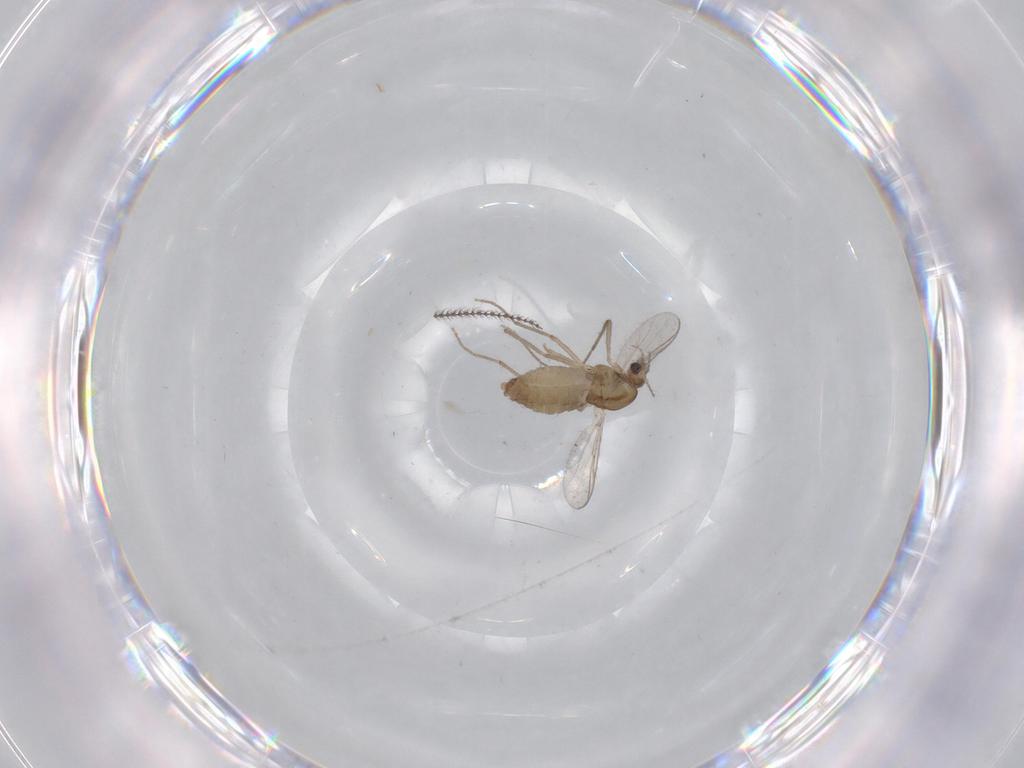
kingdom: Animalia
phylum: Arthropoda
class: Insecta
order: Diptera
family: Chironomidae
